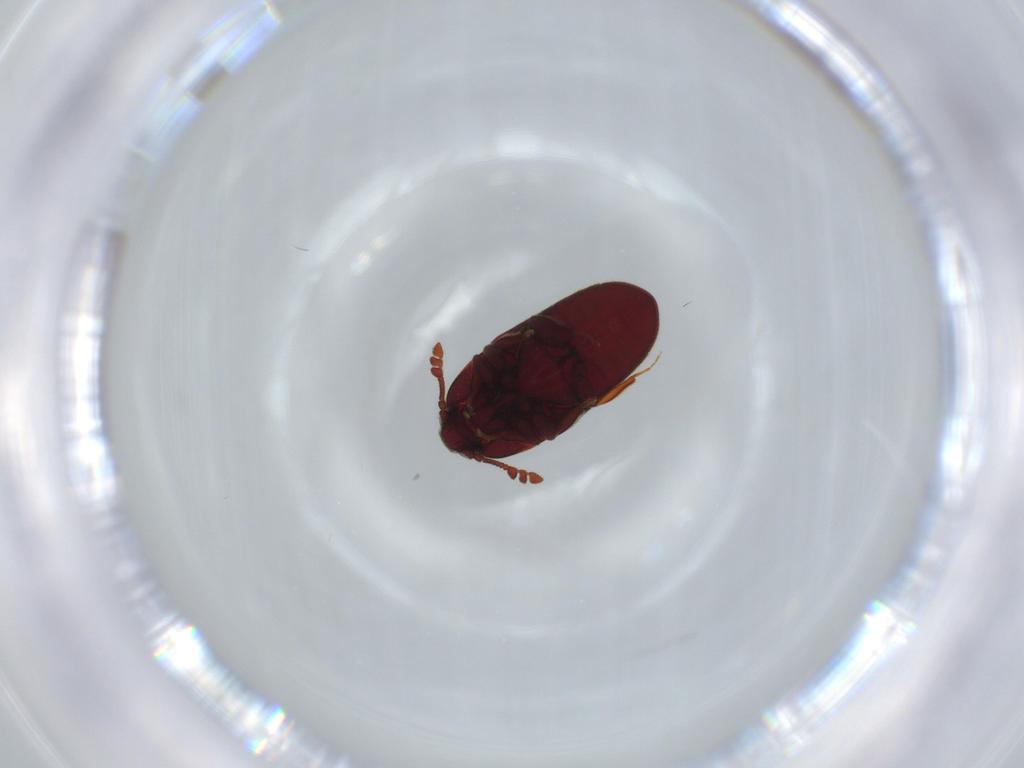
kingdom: Animalia
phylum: Arthropoda
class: Insecta
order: Coleoptera
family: Throscidae
